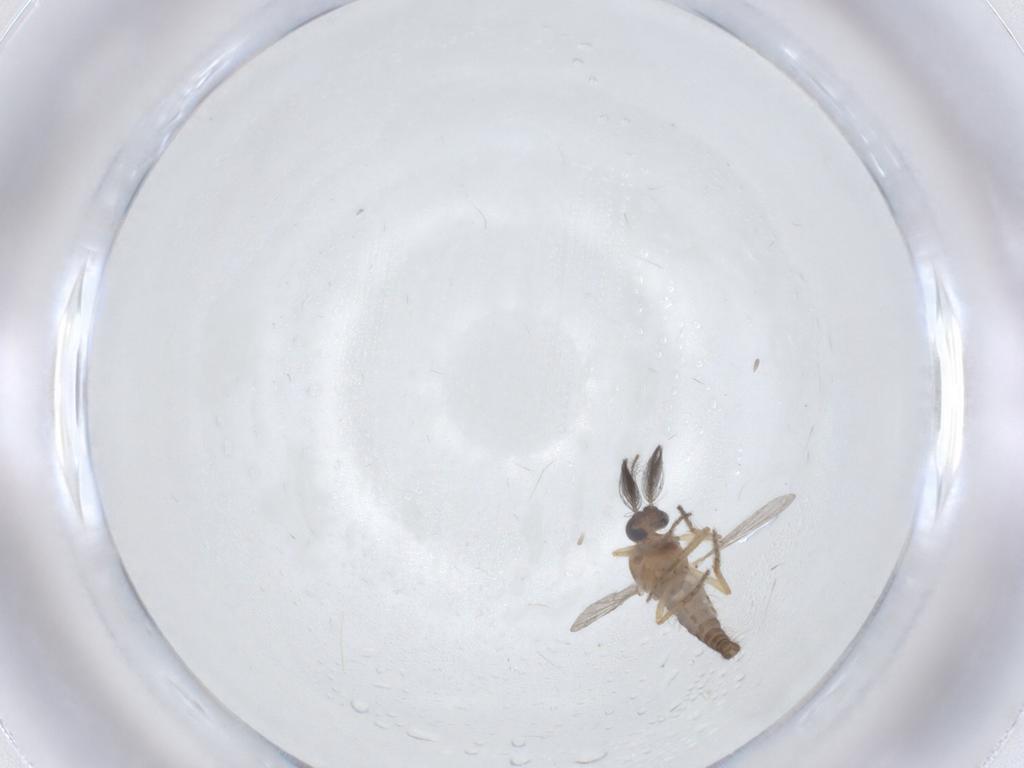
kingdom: Animalia
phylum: Arthropoda
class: Insecta
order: Diptera
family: Ceratopogonidae
